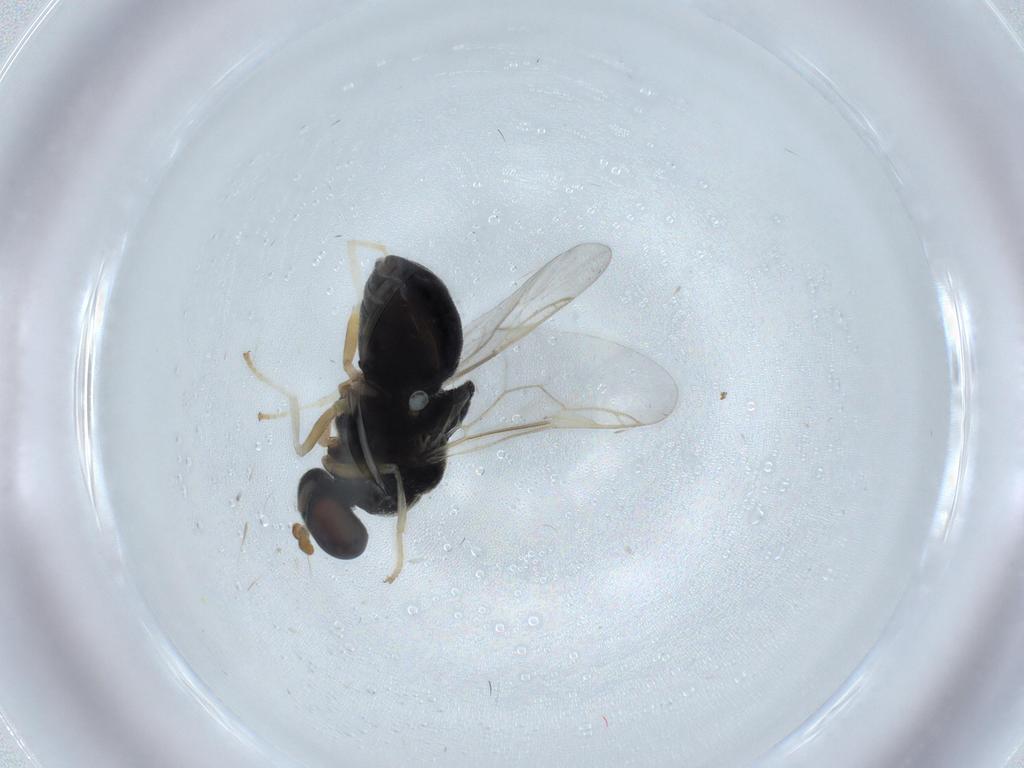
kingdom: Animalia
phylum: Arthropoda
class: Insecta
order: Diptera
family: Stratiomyidae
